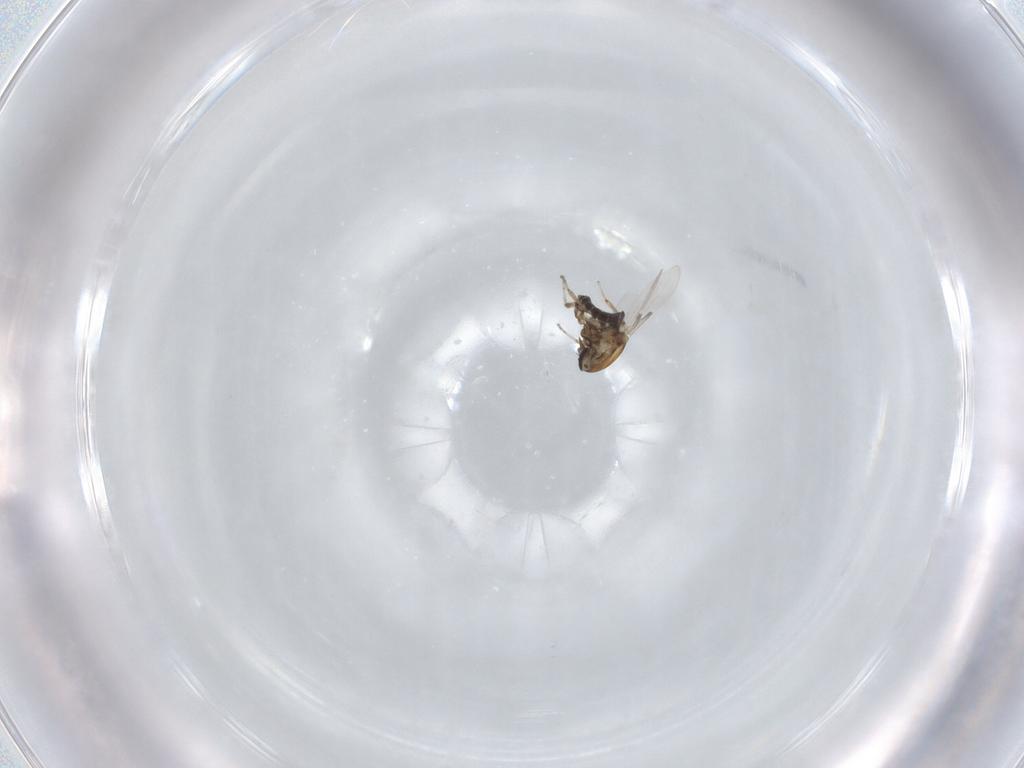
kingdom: Animalia
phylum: Arthropoda
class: Insecta
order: Diptera
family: Ceratopogonidae
